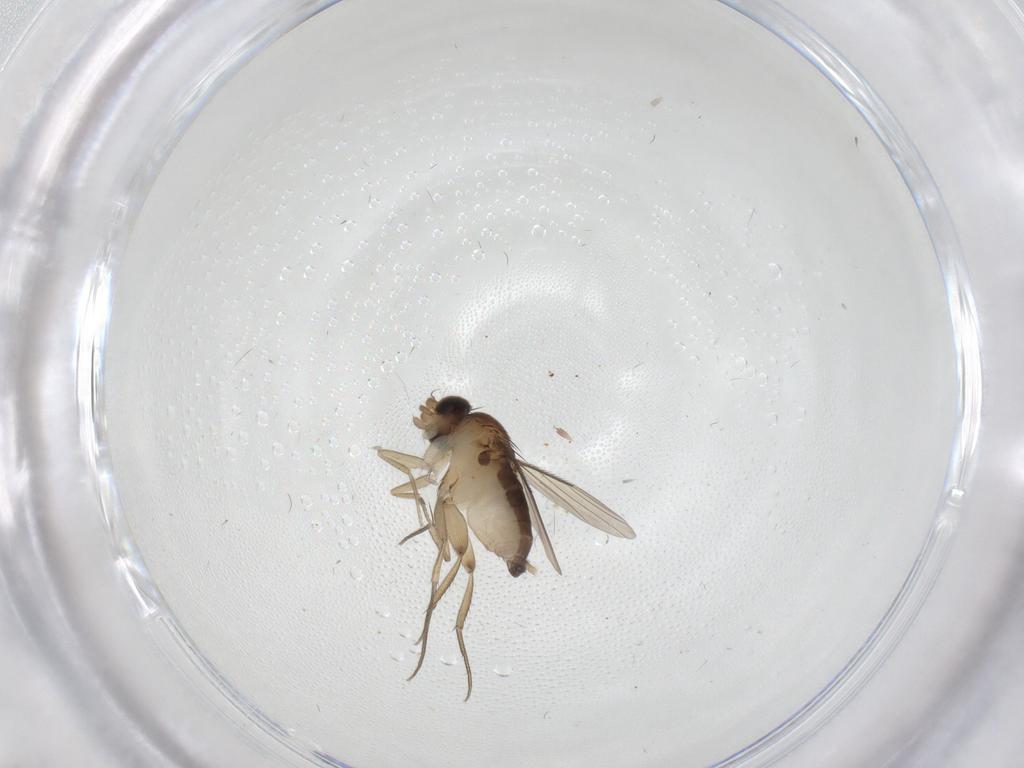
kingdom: Animalia
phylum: Arthropoda
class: Insecta
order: Diptera
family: Phoridae
